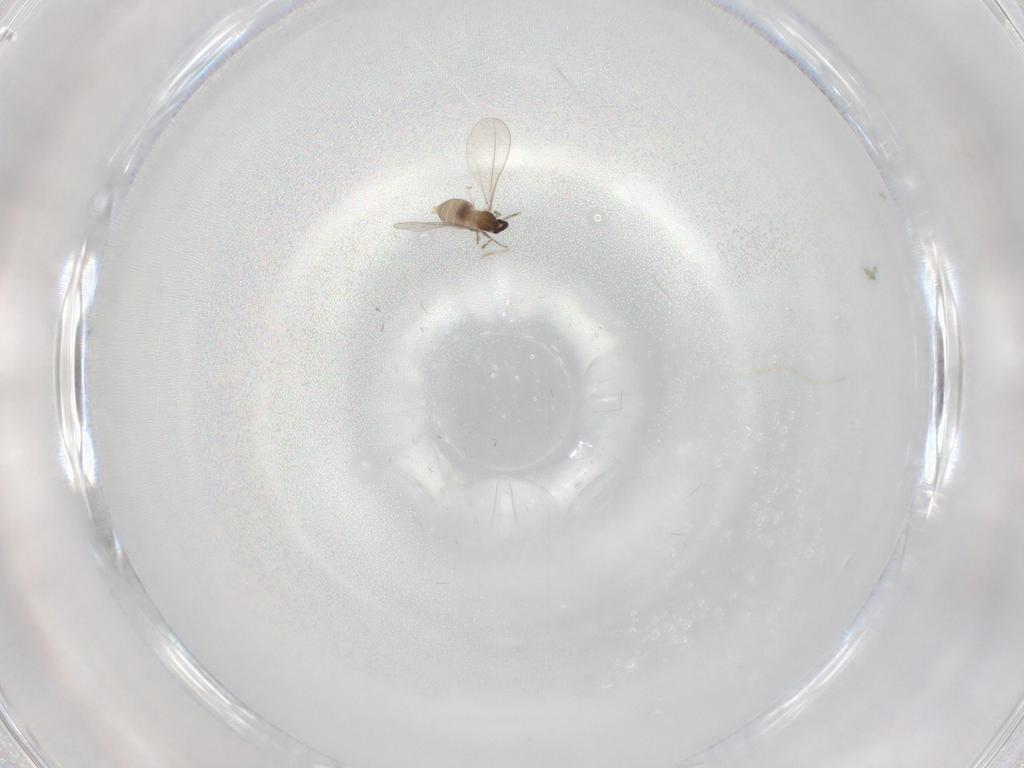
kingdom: Animalia
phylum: Arthropoda
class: Insecta
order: Diptera
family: Cecidomyiidae
